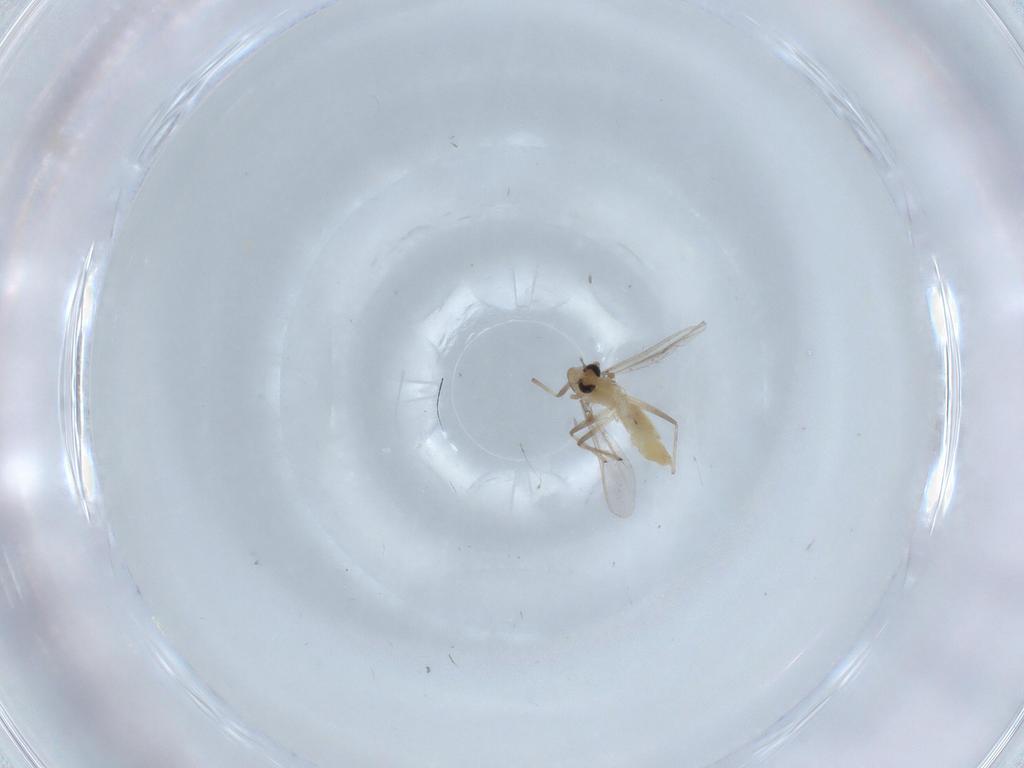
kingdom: Animalia
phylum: Arthropoda
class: Insecta
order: Diptera
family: Chironomidae
